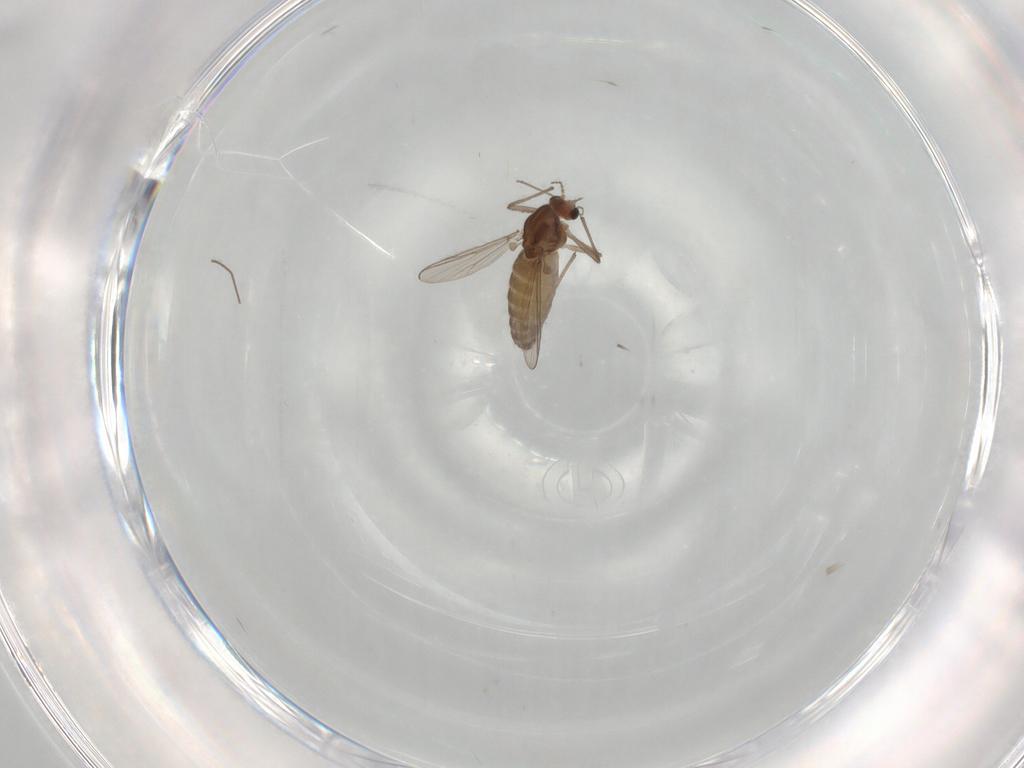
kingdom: Animalia
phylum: Arthropoda
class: Insecta
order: Diptera
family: Chironomidae
